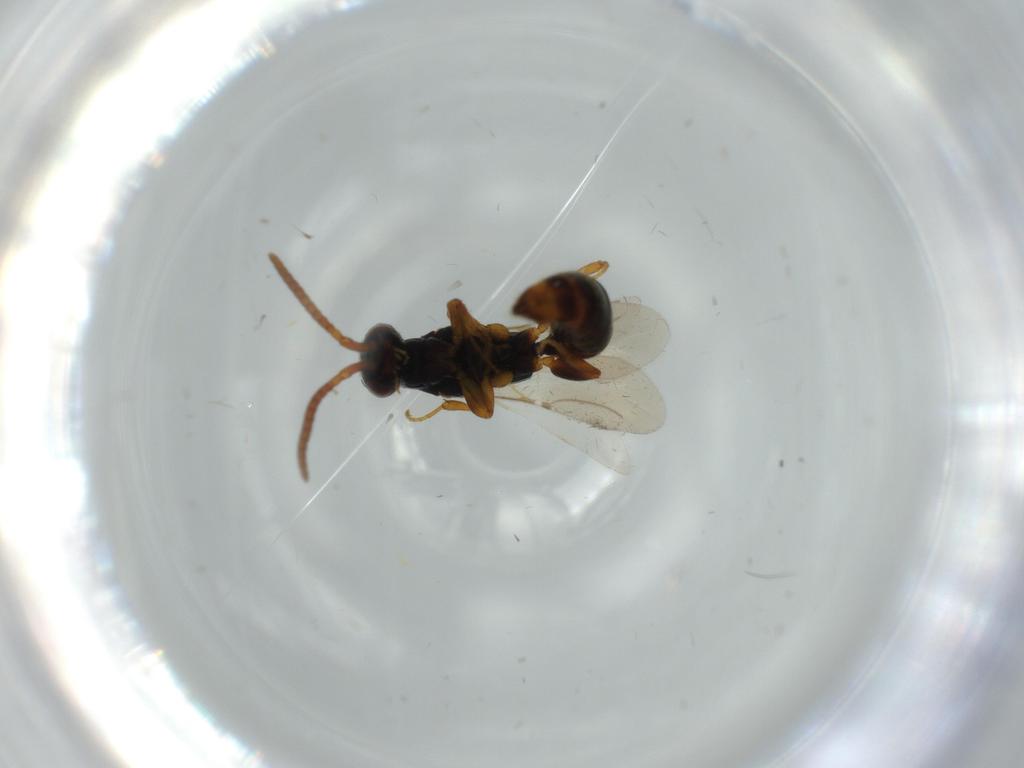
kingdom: Animalia
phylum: Arthropoda
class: Insecta
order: Hymenoptera
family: Bethylidae
